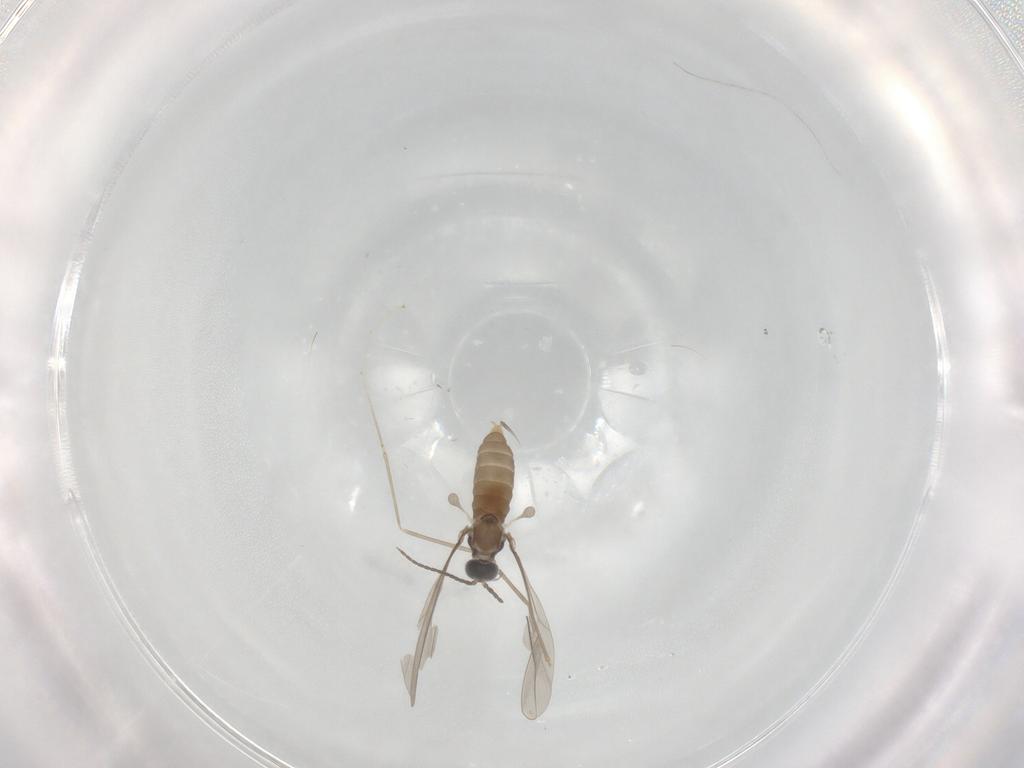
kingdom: Animalia
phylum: Arthropoda
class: Insecta
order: Diptera
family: Cecidomyiidae
